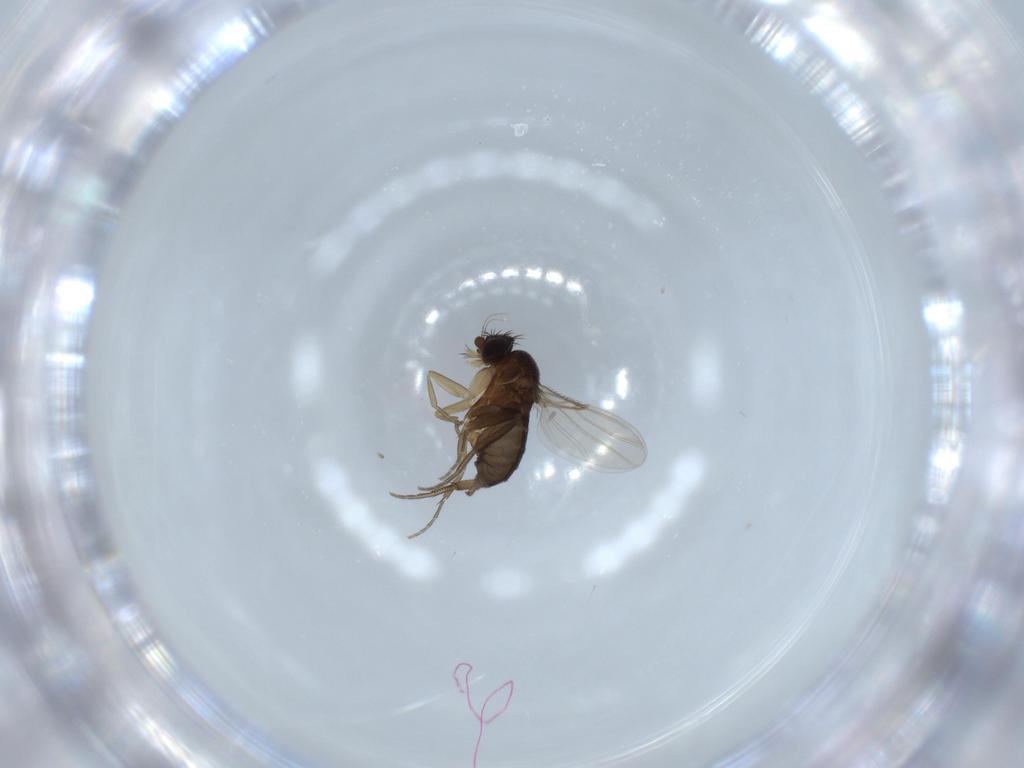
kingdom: Animalia
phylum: Arthropoda
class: Insecta
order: Diptera
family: Phoridae
